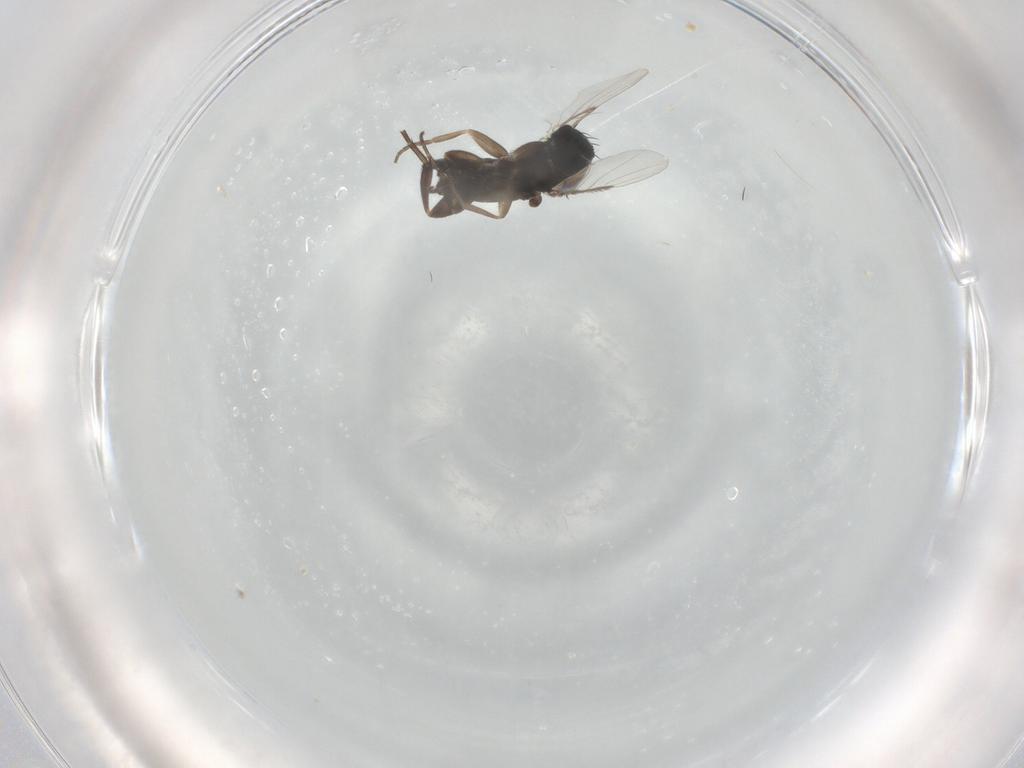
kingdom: Animalia
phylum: Arthropoda
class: Insecta
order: Diptera
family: Phoridae
